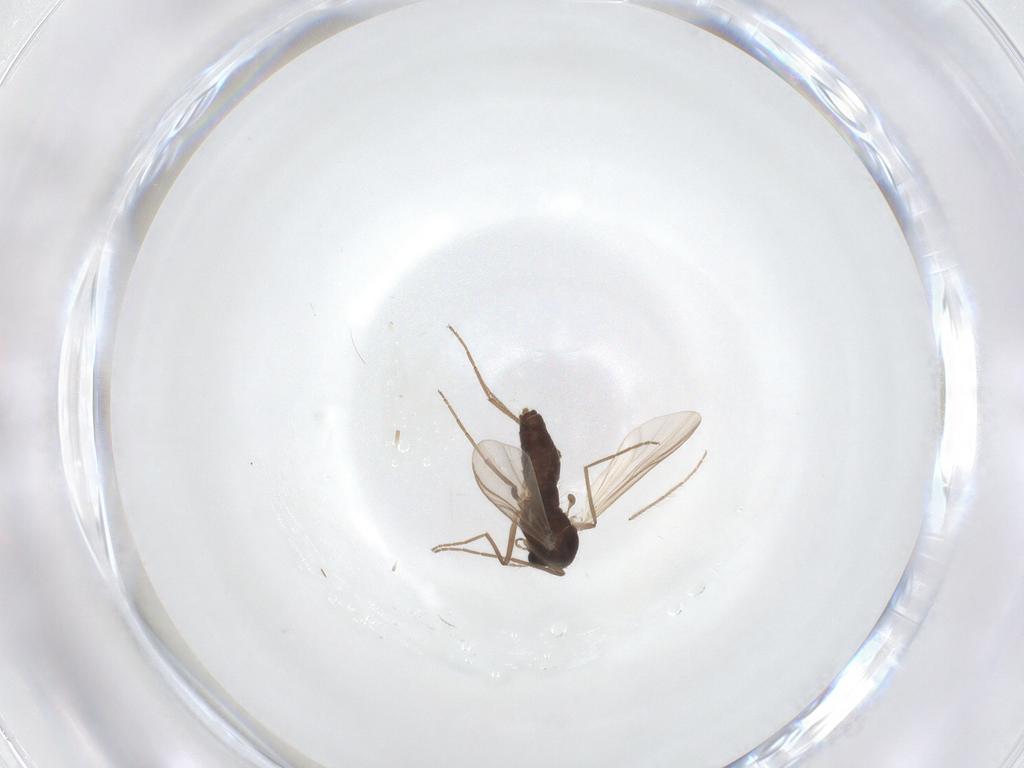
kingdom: Animalia
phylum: Arthropoda
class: Insecta
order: Diptera
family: Chironomidae
